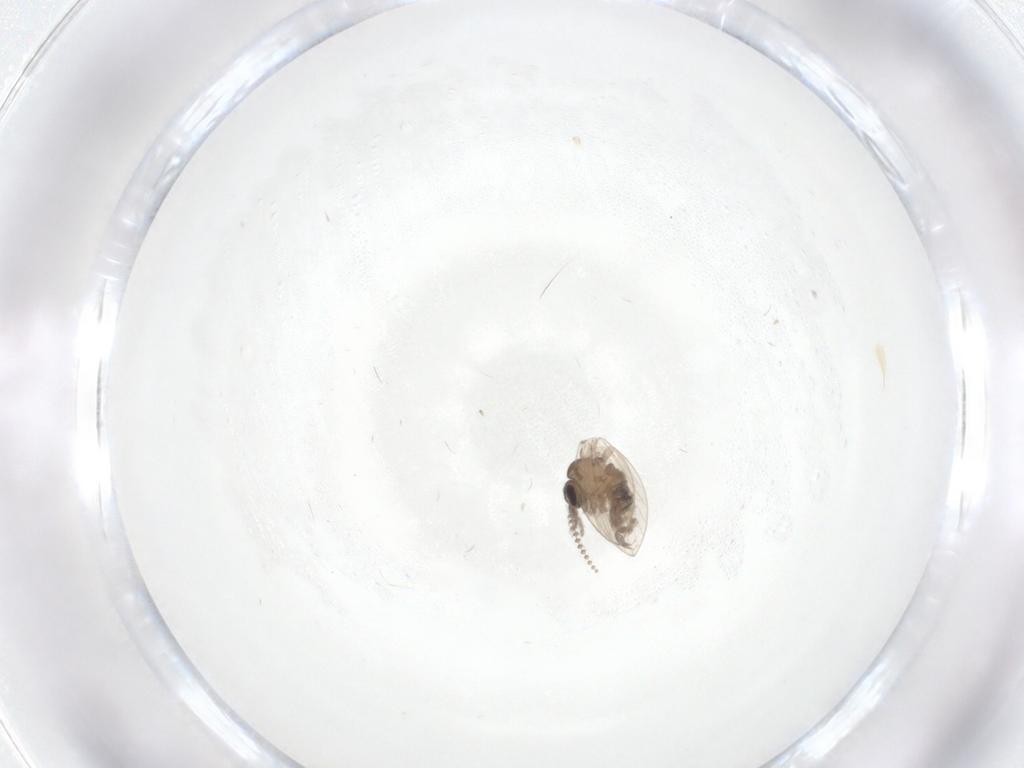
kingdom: Animalia
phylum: Arthropoda
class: Insecta
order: Diptera
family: Psychodidae
